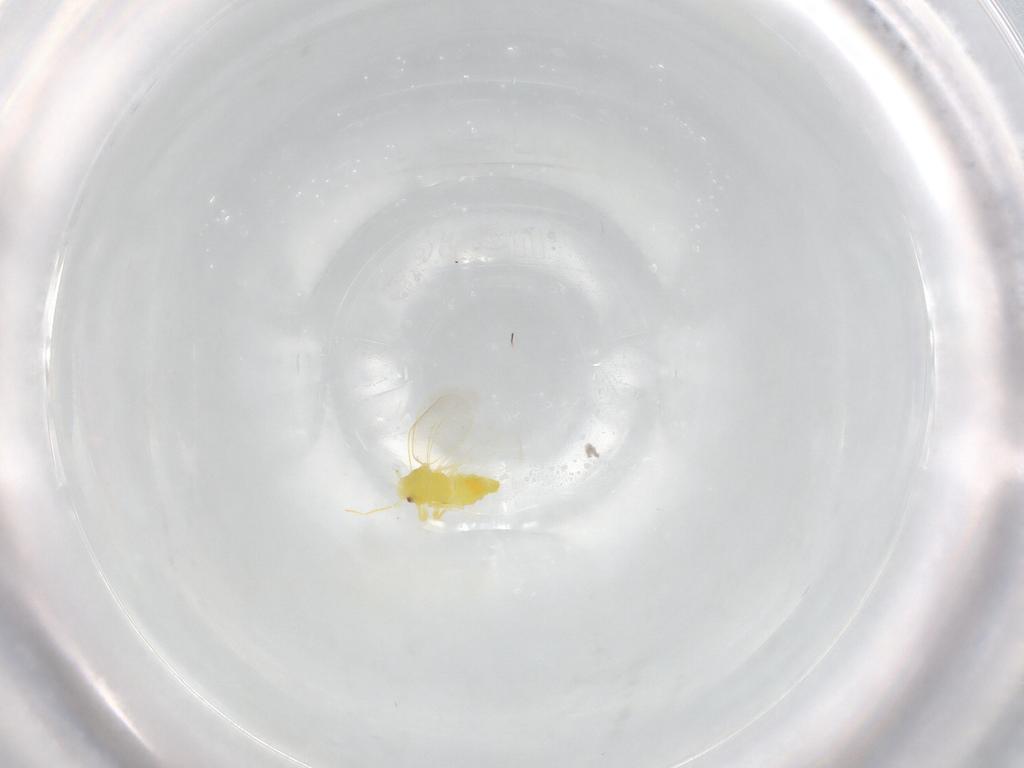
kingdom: Animalia
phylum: Arthropoda
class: Insecta
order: Hemiptera
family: Aleyrodidae
